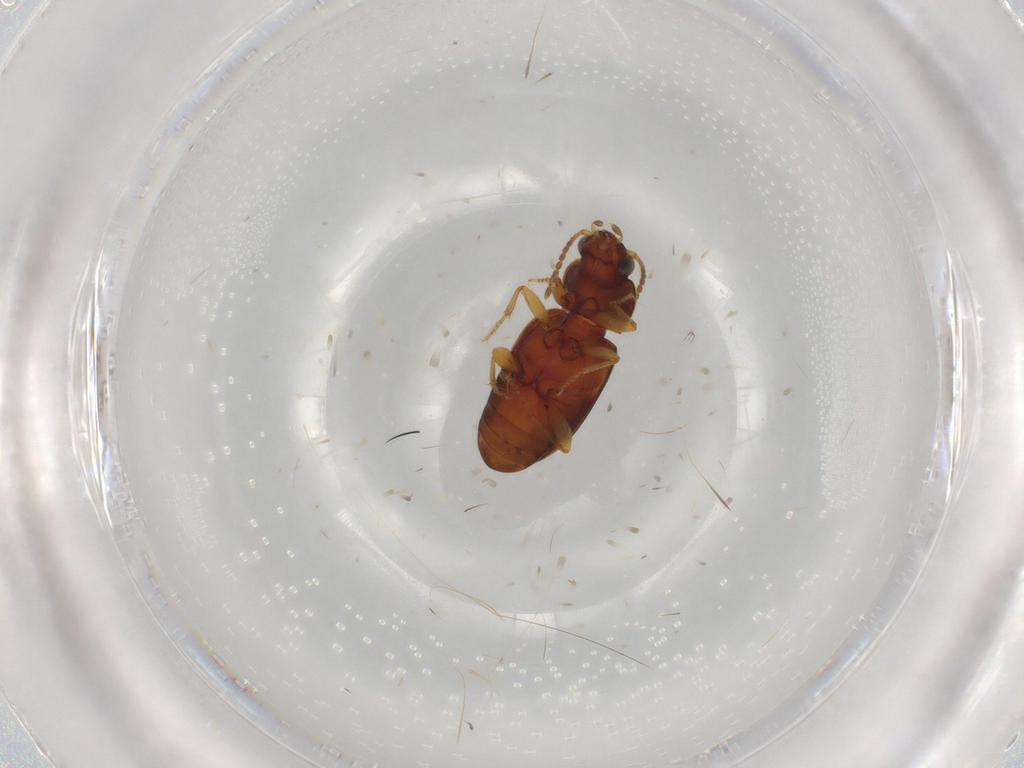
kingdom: Animalia
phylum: Arthropoda
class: Insecta
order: Coleoptera
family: Carabidae
